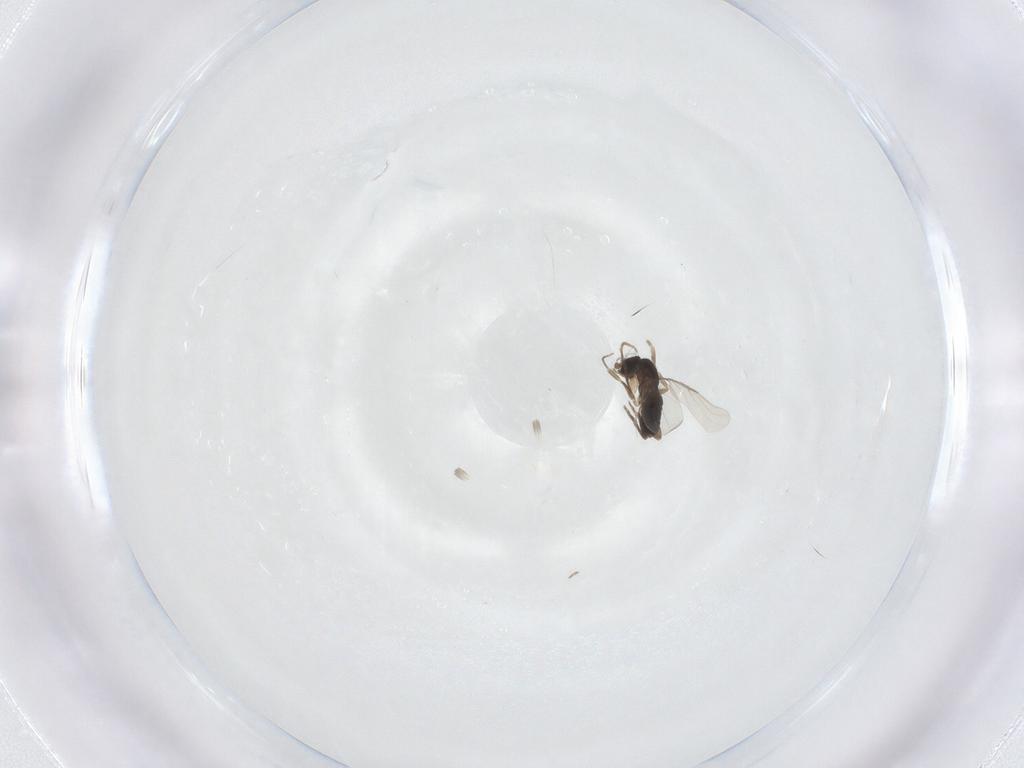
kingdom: Animalia
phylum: Arthropoda
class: Insecta
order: Diptera
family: Phoridae
